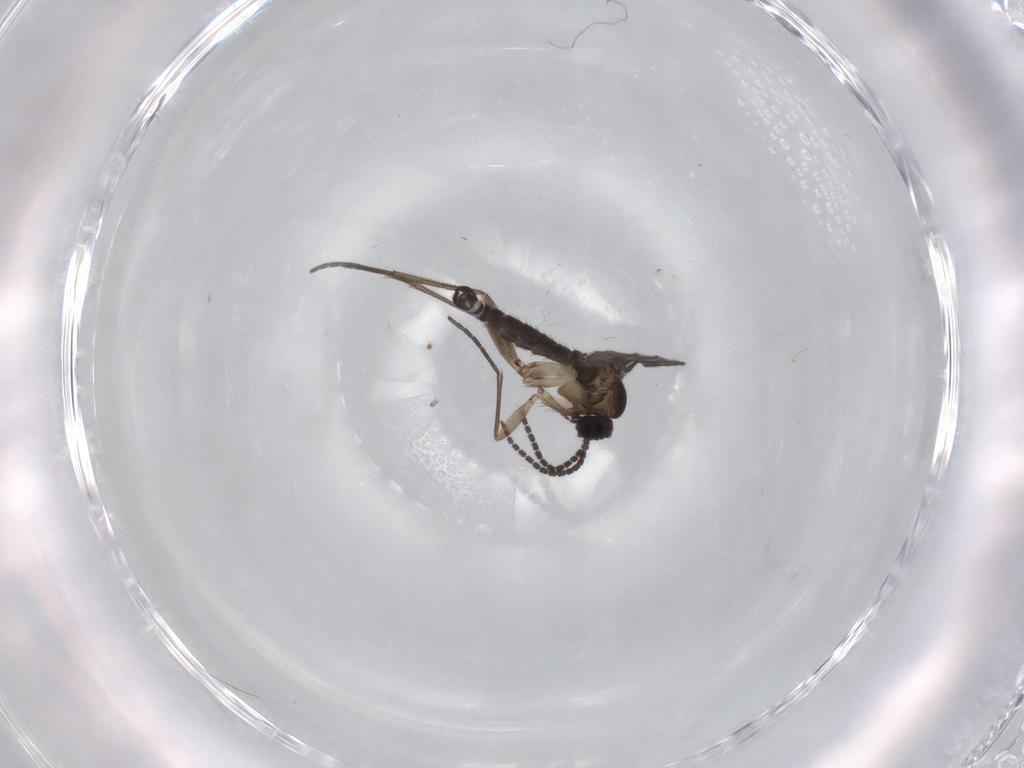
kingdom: Animalia
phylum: Arthropoda
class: Insecta
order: Diptera
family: Sciaridae
